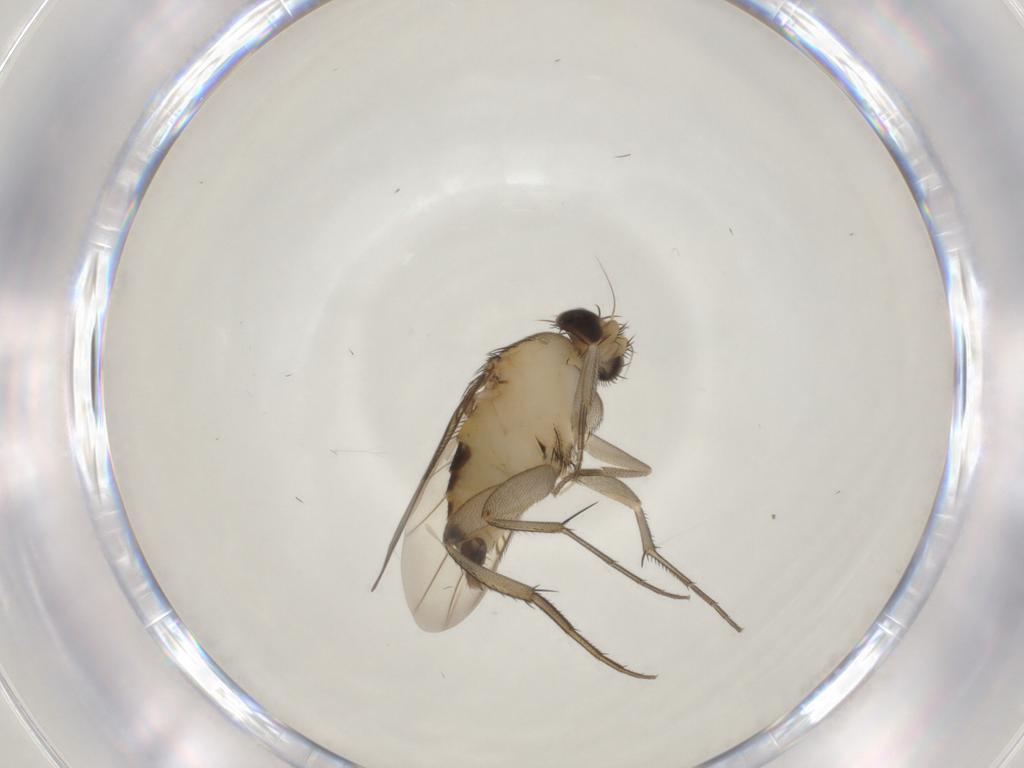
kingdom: Animalia
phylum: Arthropoda
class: Insecta
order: Diptera
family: Phoridae
